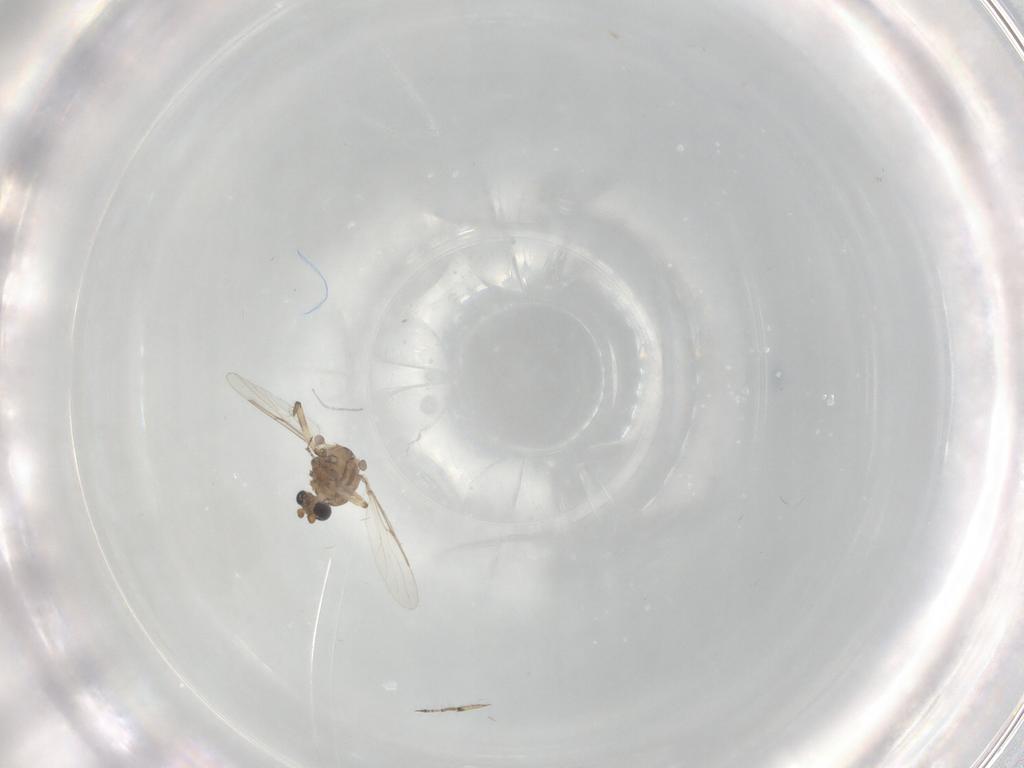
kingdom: Animalia
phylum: Arthropoda
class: Insecta
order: Diptera
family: Ceratopogonidae
